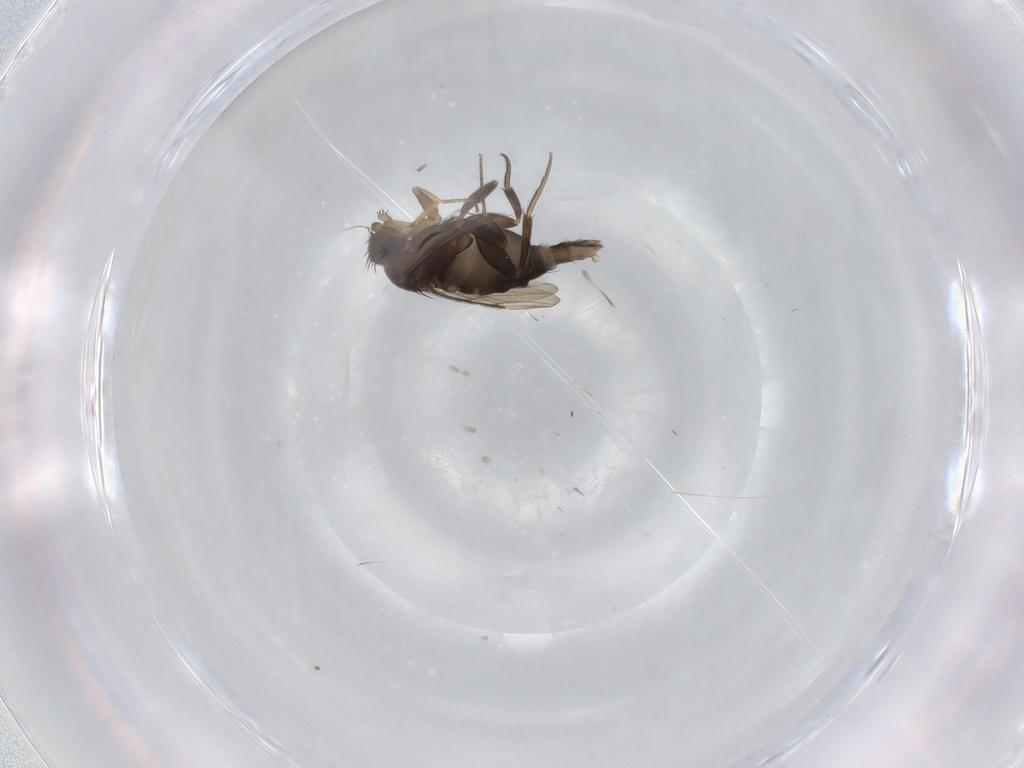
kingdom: Animalia
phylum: Arthropoda
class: Insecta
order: Diptera
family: Phoridae
